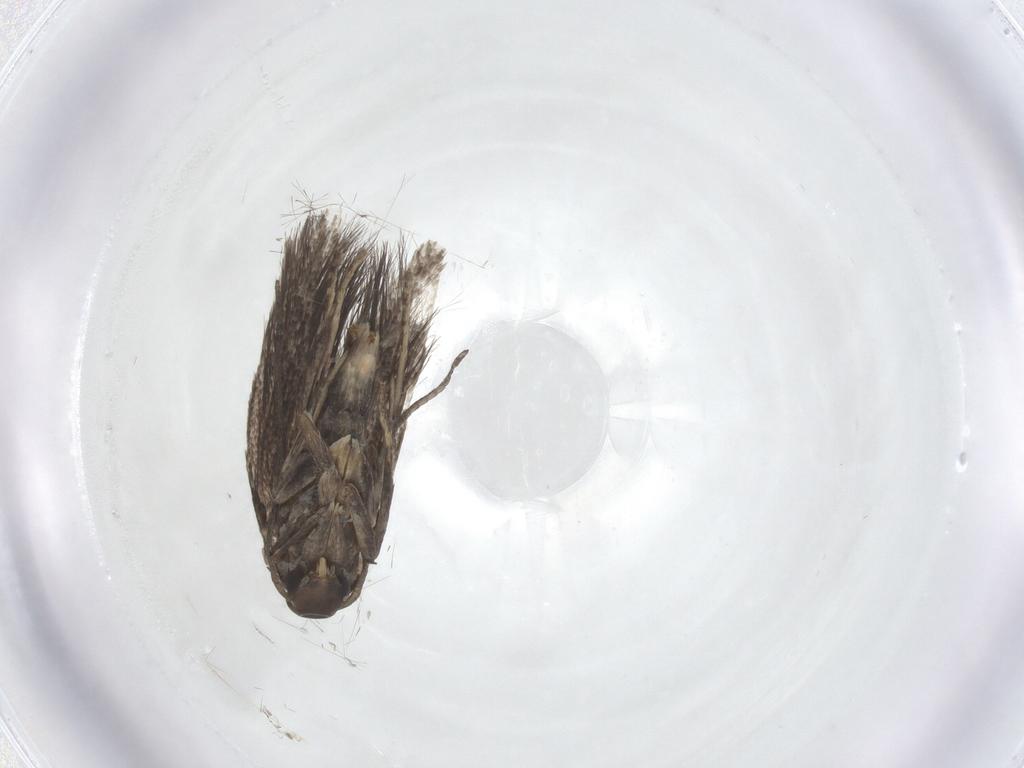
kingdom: Animalia
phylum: Arthropoda
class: Insecta
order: Lepidoptera
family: Elachistidae
